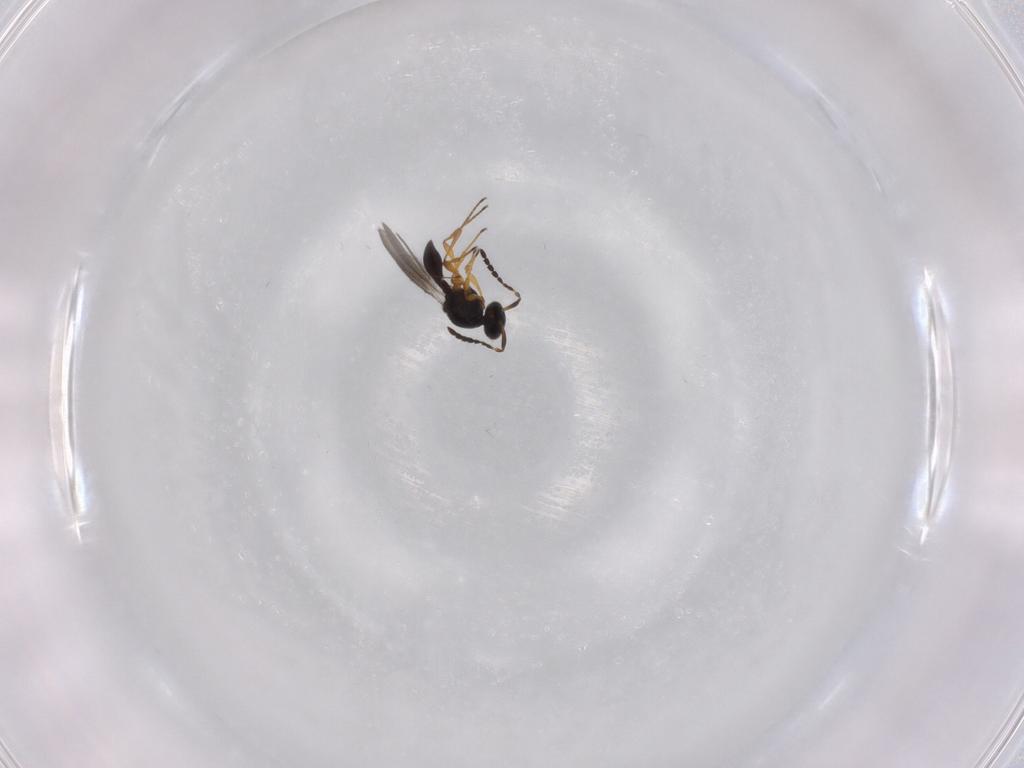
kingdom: Animalia
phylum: Arthropoda
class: Insecta
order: Hymenoptera
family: Platygastridae
